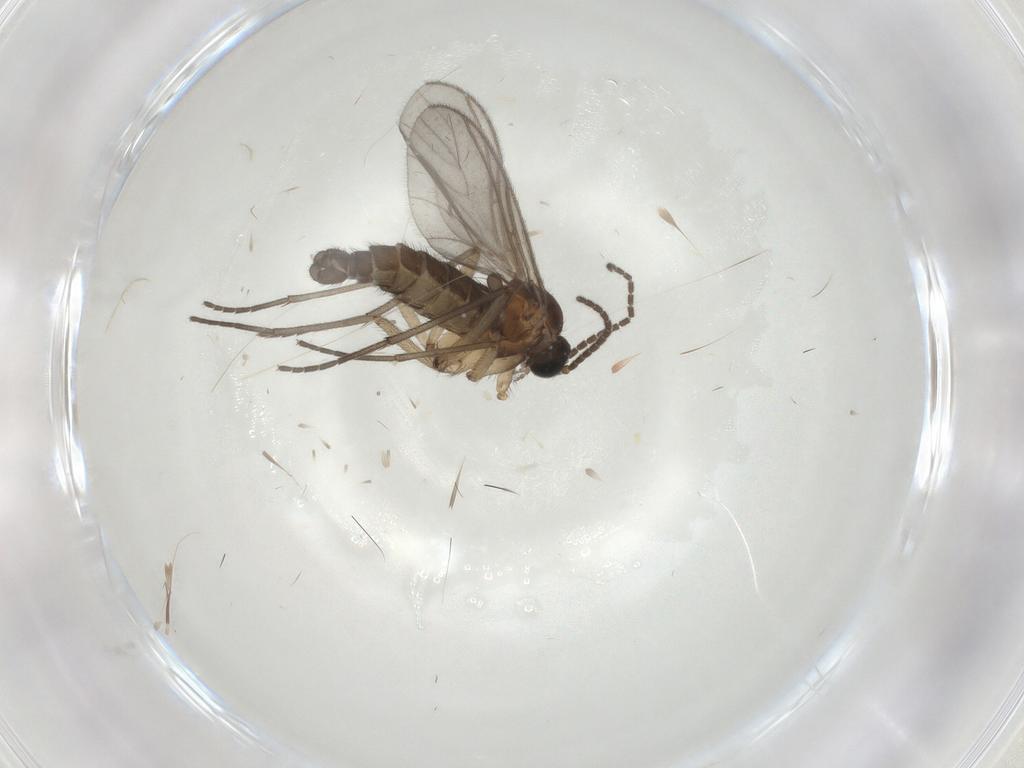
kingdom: Animalia
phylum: Arthropoda
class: Insecta
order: Diptera
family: Sciaridae
